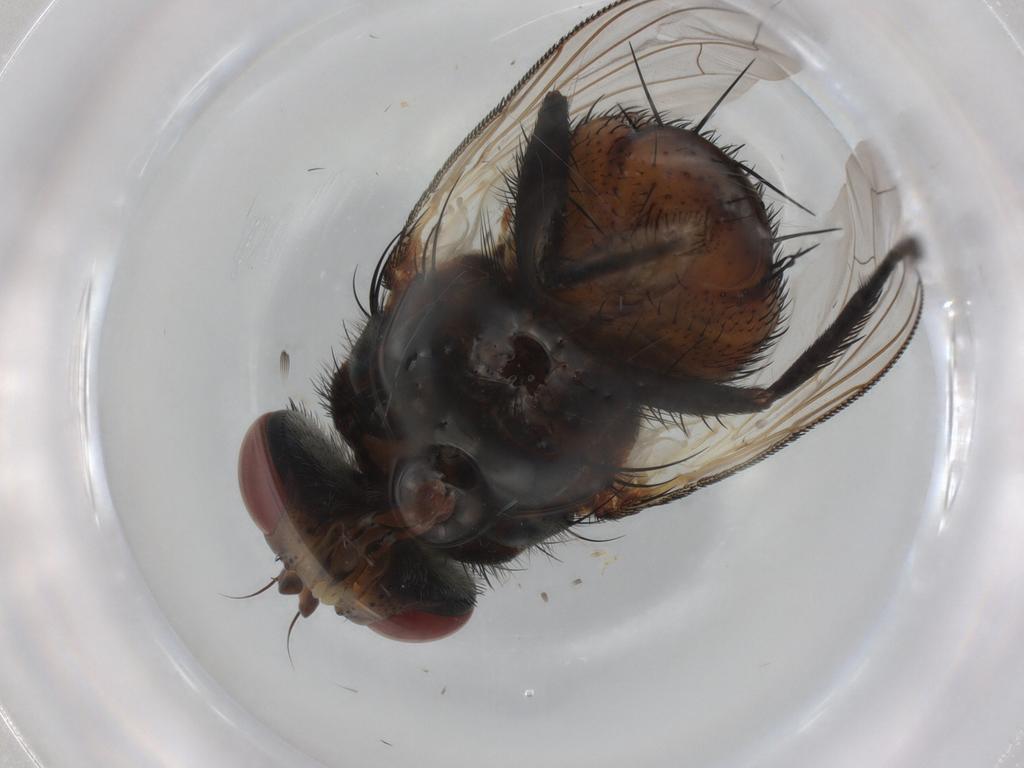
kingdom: Animalia
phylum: Arthropoda
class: Insecta
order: Diptera
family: Tachinidae
